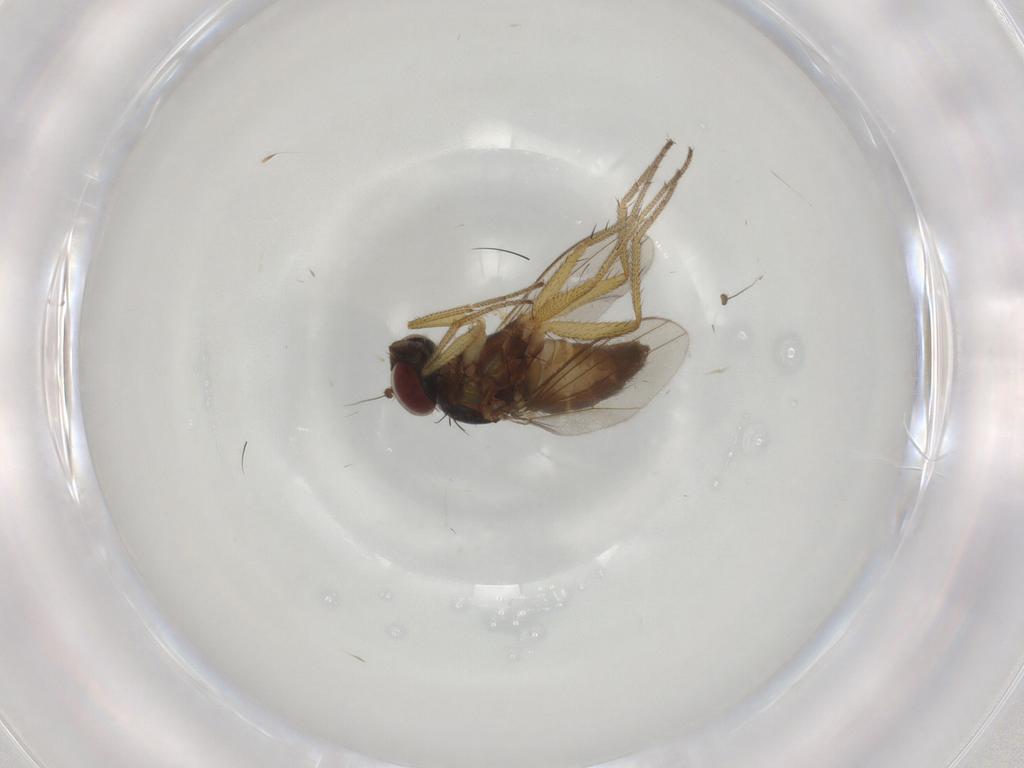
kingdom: Animalia
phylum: Arthropoda
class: Insecta
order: Diptera
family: Dolichopodidae
